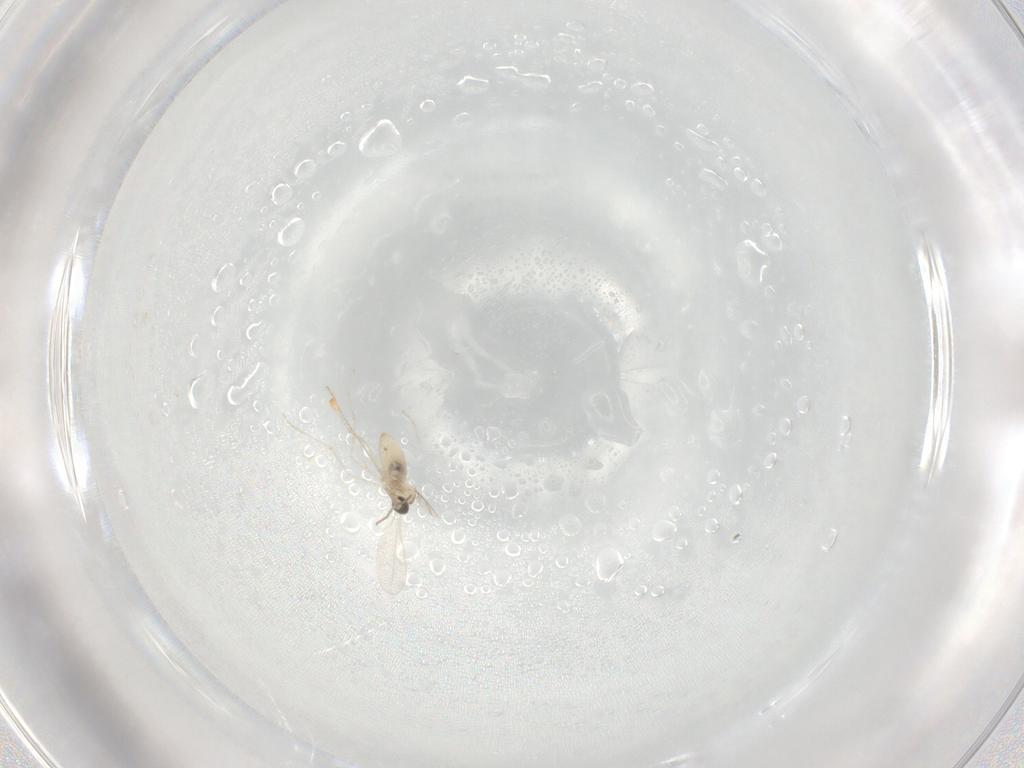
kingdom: Animalia
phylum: Arthropoda
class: Insecta
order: Diptera
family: Cecidomyiidae
